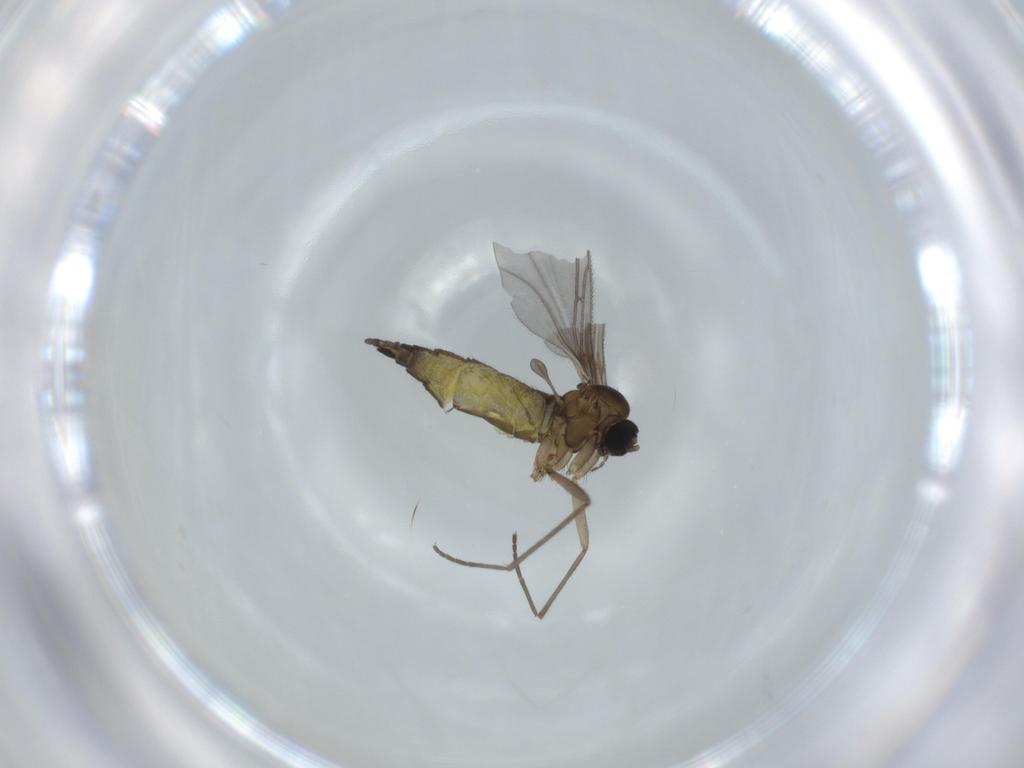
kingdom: Animalia
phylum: Arthropoda
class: Insecta
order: Diptera
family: Sciaridae
